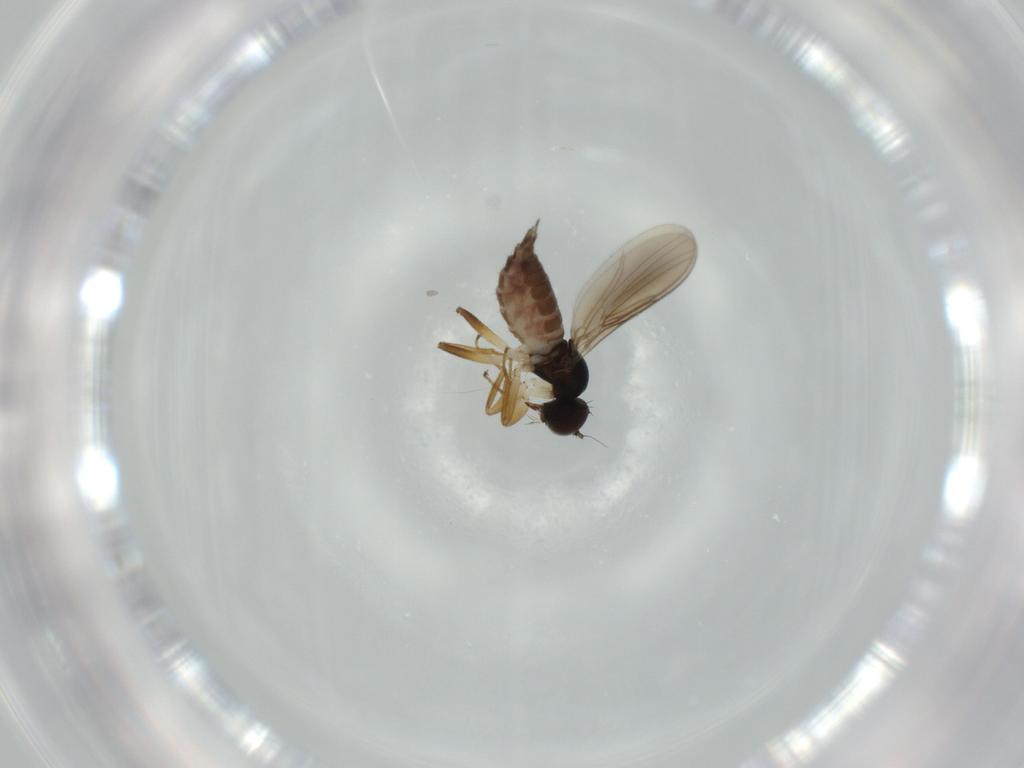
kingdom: Animalia
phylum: Arthropoda
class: Insecta
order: Diptera
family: Hybotidae
